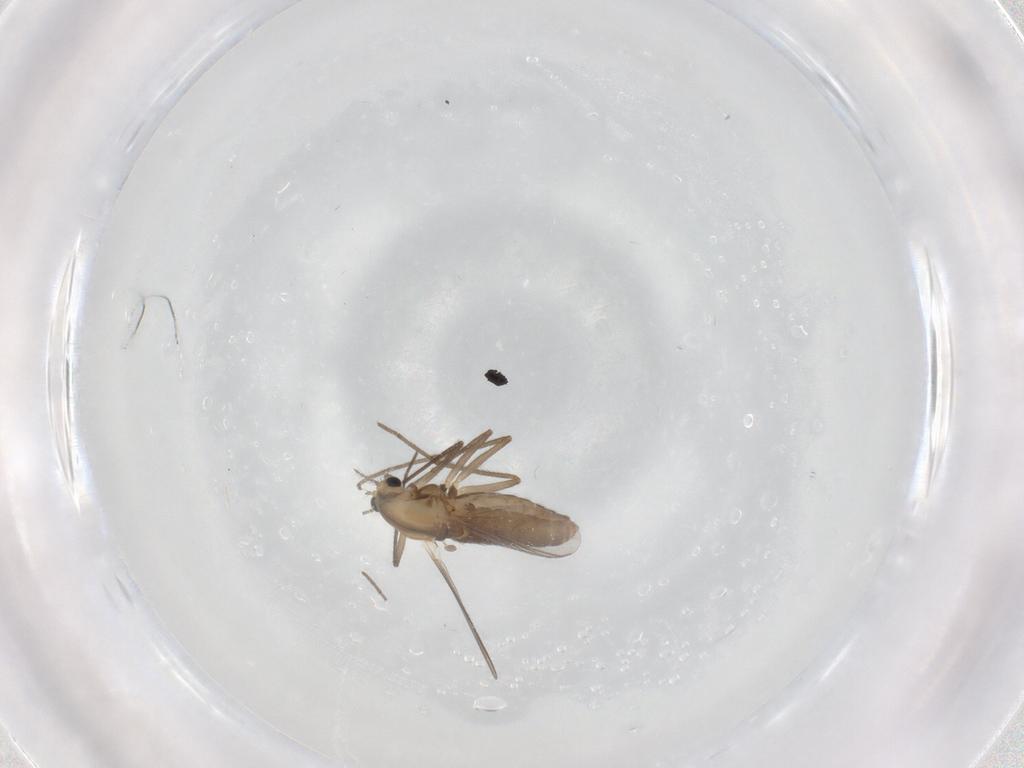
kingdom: Animalia
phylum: Arthropoda
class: Insecta
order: Diptera
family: Chironomidae
